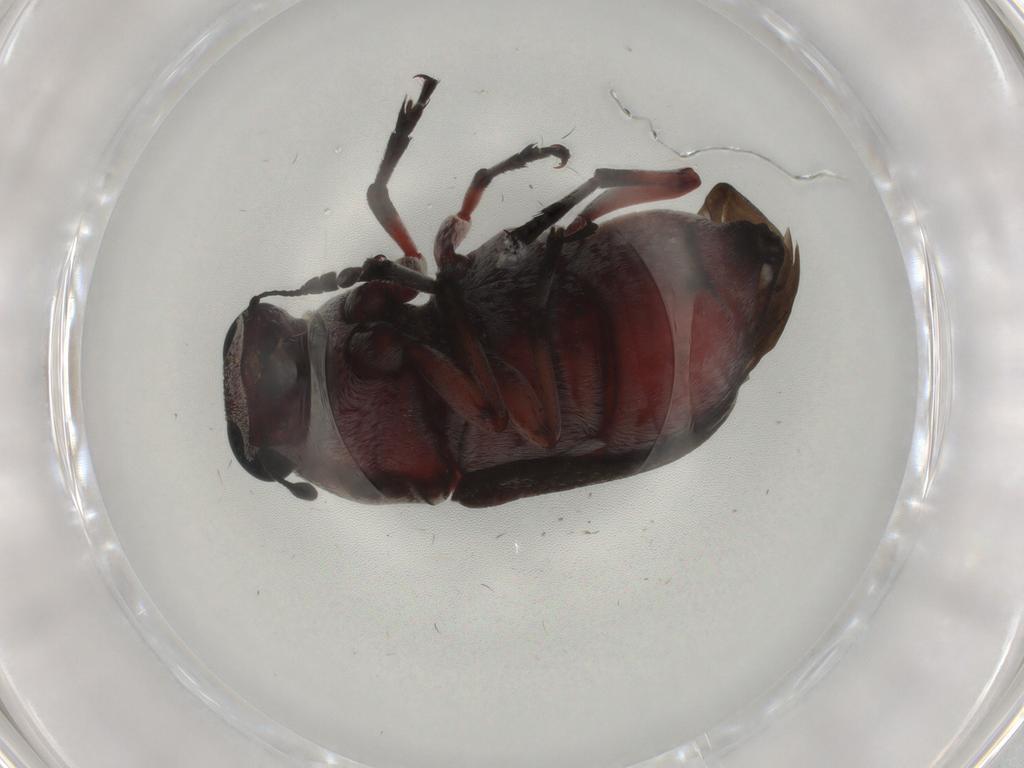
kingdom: Animalia
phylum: Arthropoda
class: Insecta
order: Coleoptera
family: Aderidae
